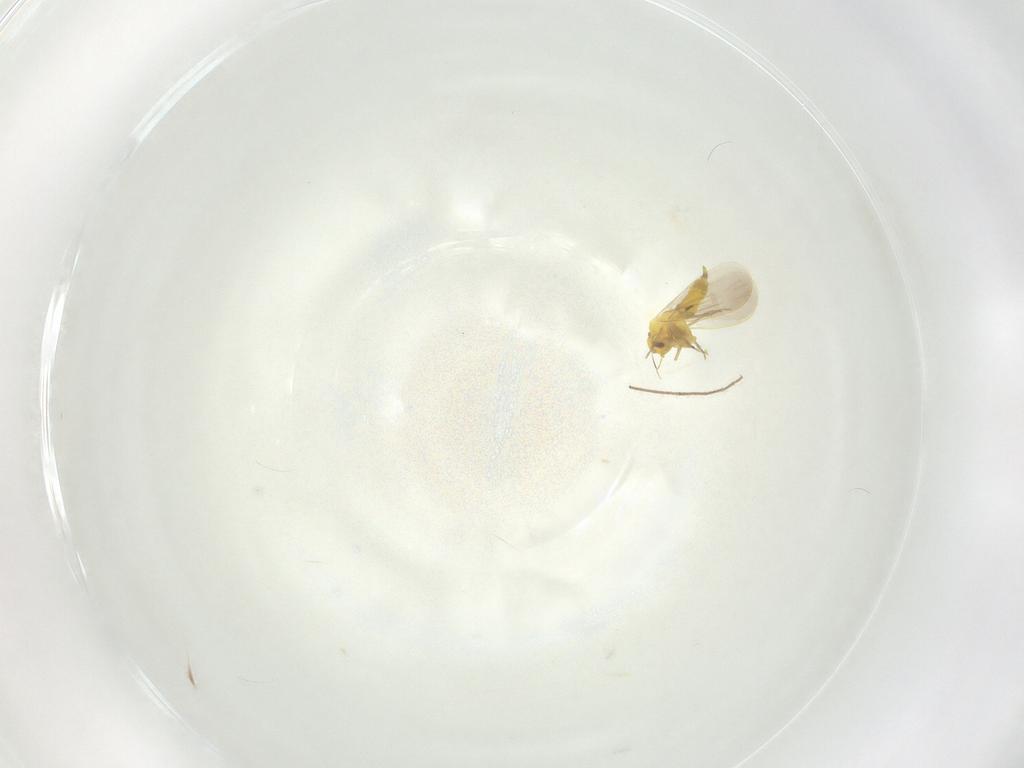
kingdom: Animalia
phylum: Arthropoda
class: Insecta
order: Hemiptera
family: Aleyrodidae
